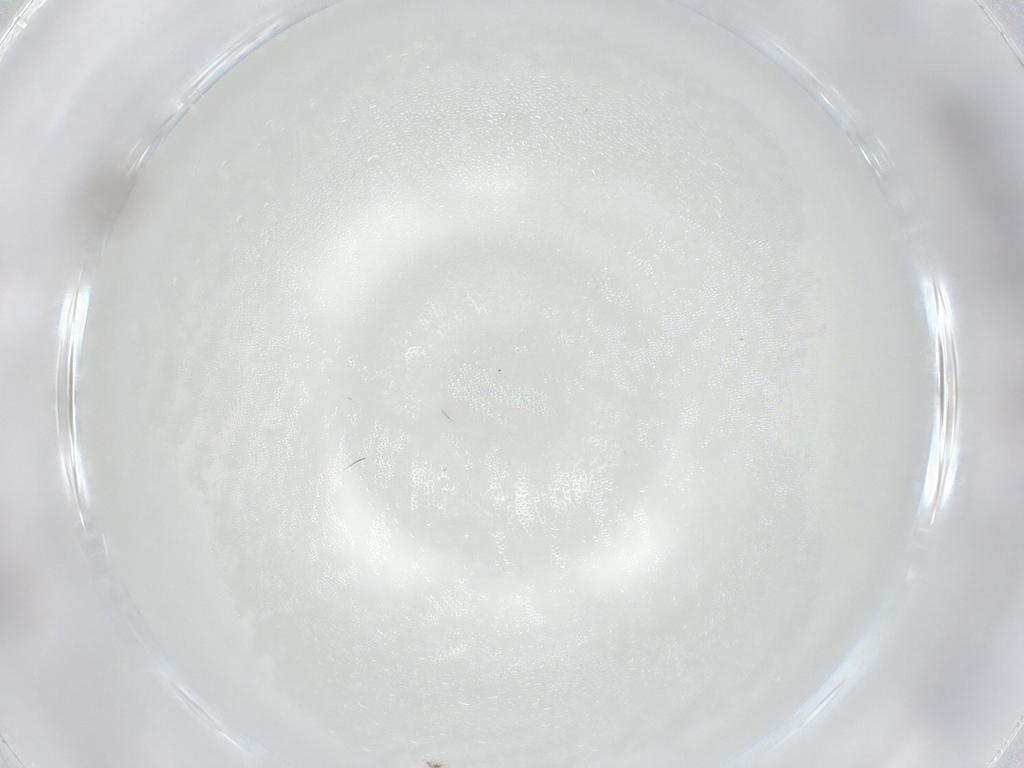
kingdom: Animalia
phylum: Arthropoda
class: Insecta
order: Diptera
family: Cecidomyiidae
